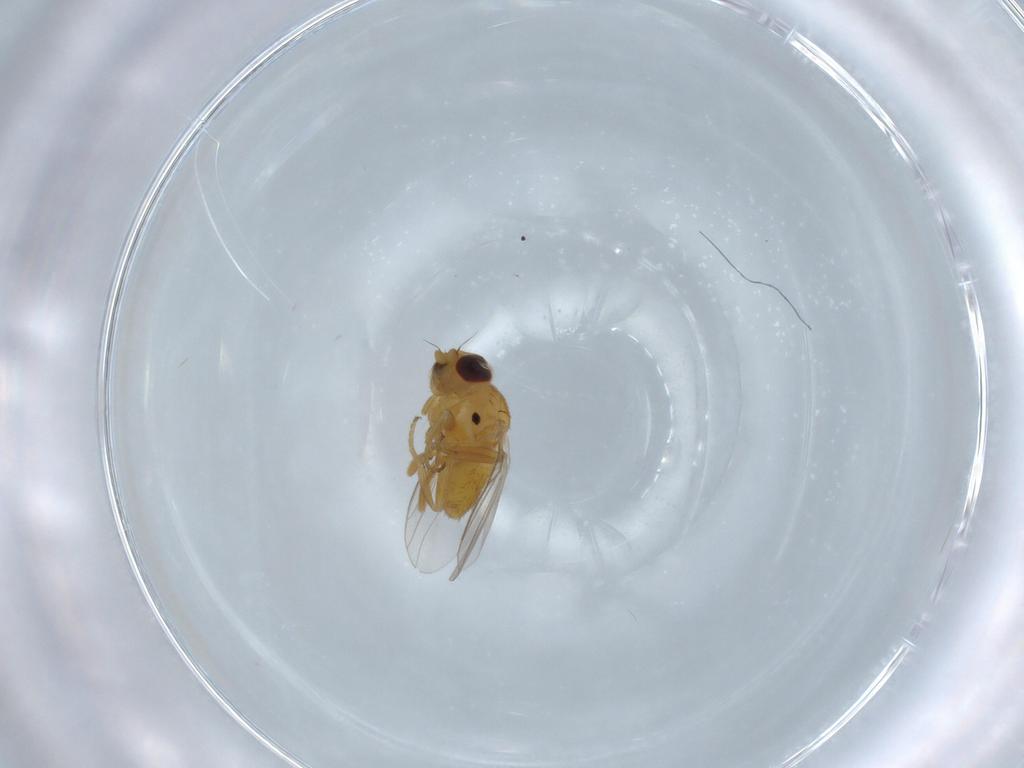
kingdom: Animalia
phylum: Arthropoda
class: Insecta
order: Diptera
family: Chloropidae
